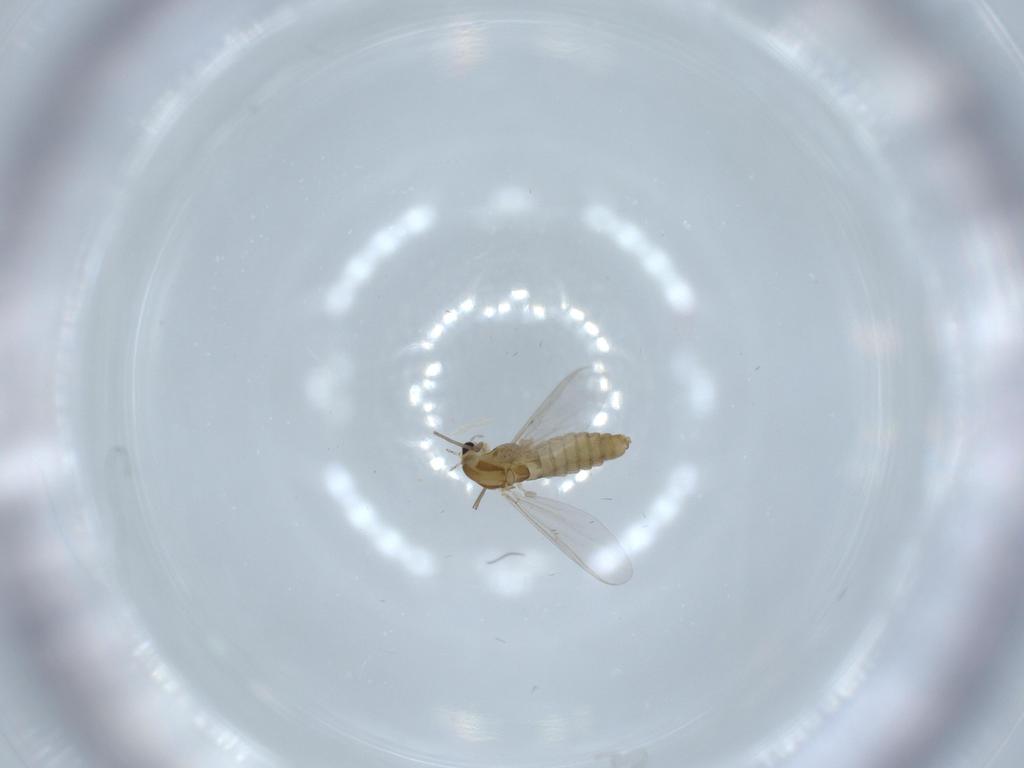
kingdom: Animalia
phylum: Arthropoda
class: Insecta
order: Diptera
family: Chironomidae
